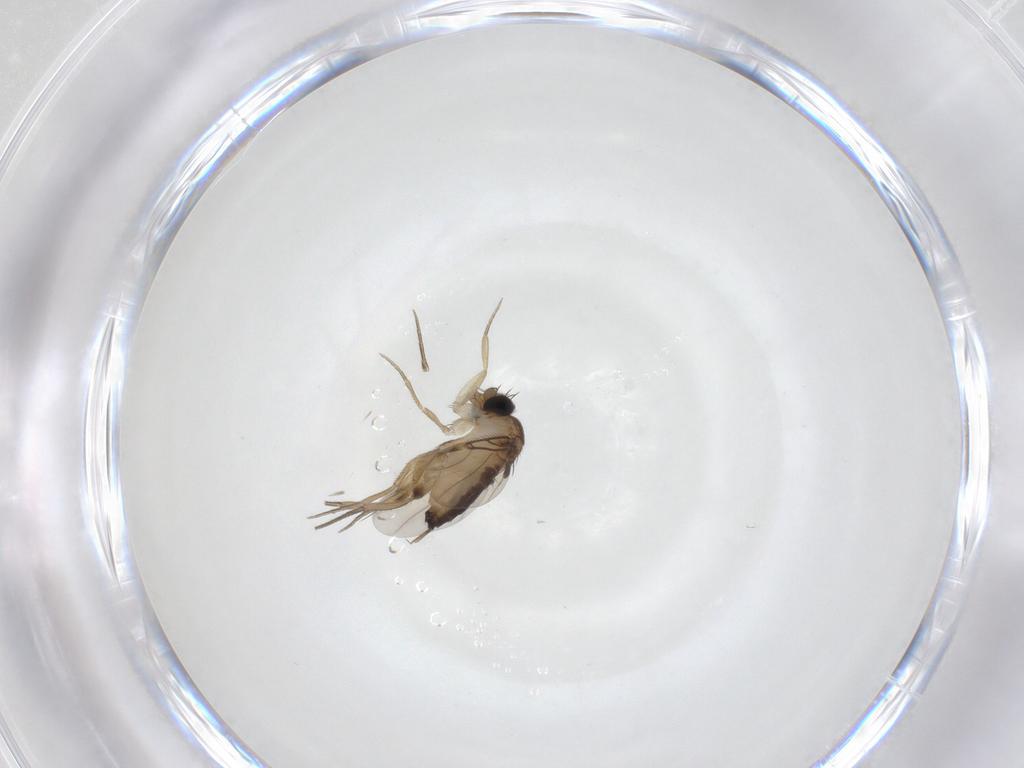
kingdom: Animalia
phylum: Arthropoda
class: Insecta
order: Diptera
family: Phoridae
